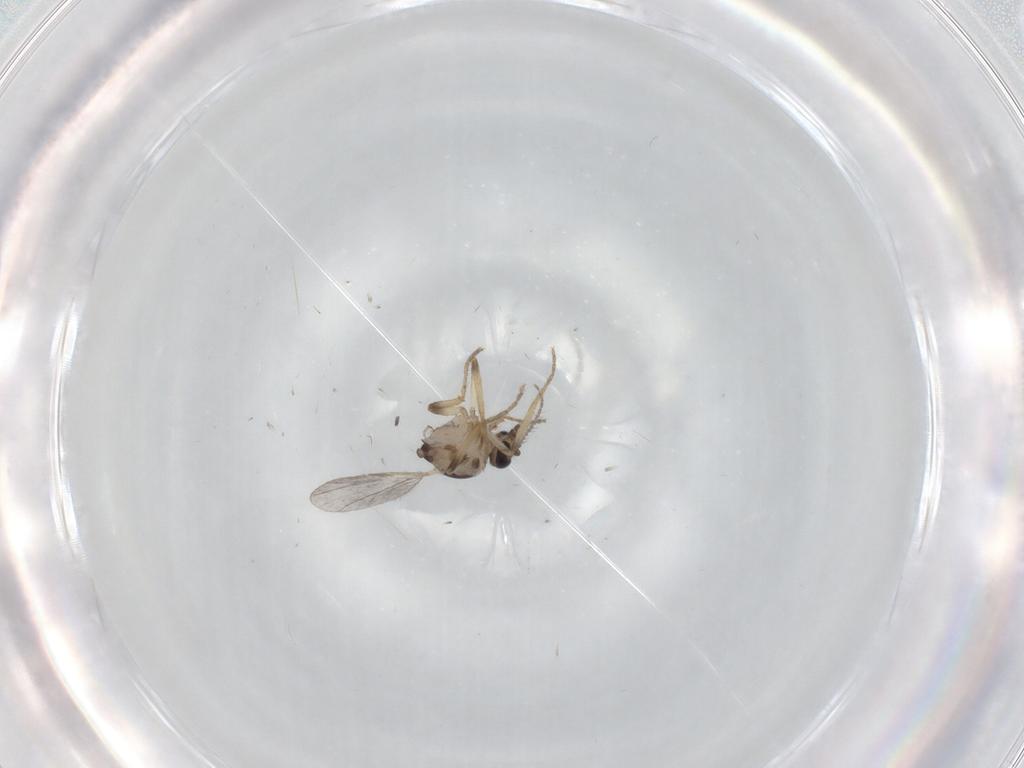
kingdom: Animalia
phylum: Arthropoda
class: Insecta
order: Diptera
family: Ceratopogonidae
